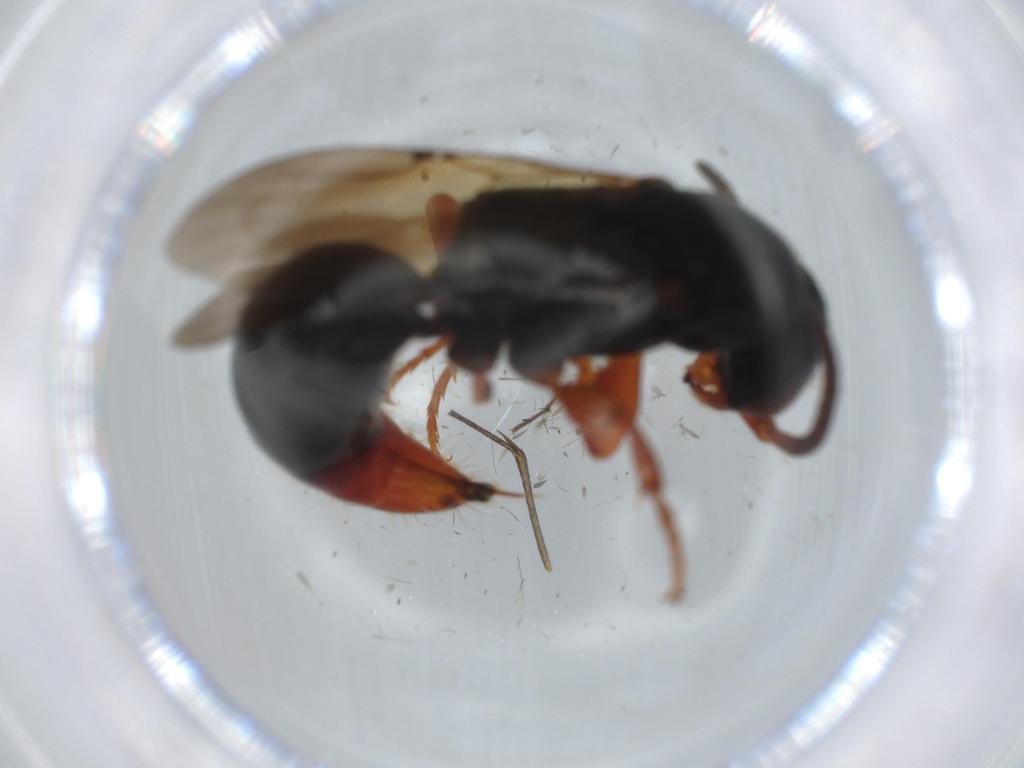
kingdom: Animalia
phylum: Arthropoda
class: Insecta
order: Hymenoptera
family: Bethylidae
